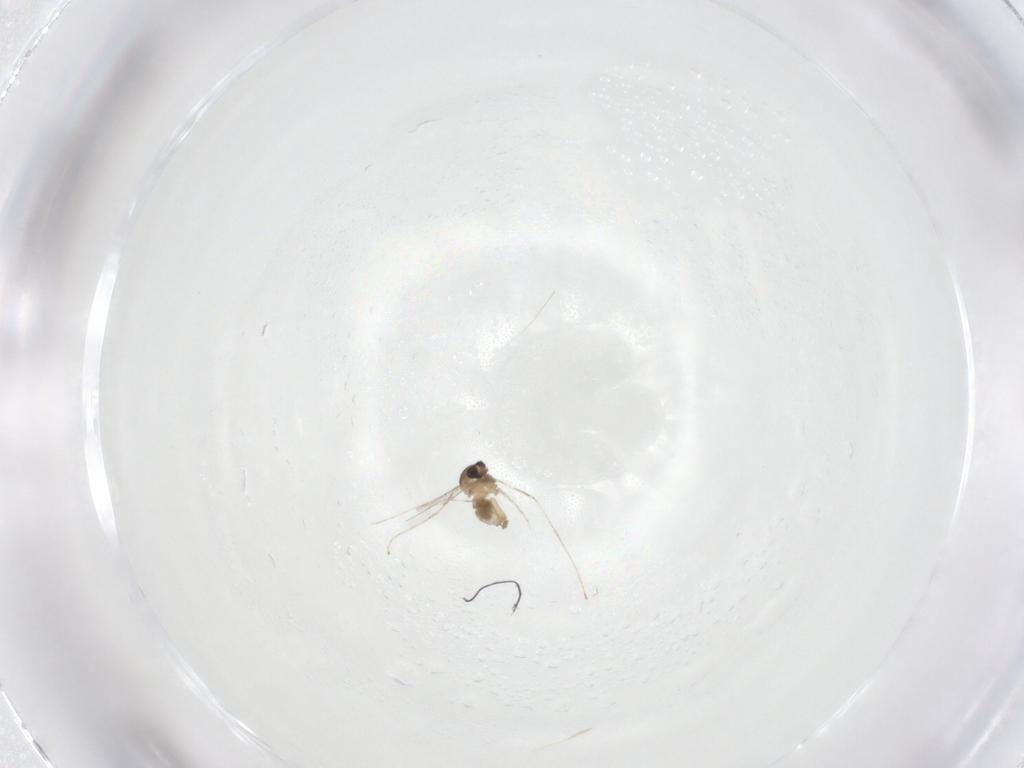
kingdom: Animalia
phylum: Arthropoda
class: Insecta
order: Diptera
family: Cecidomyiidae
